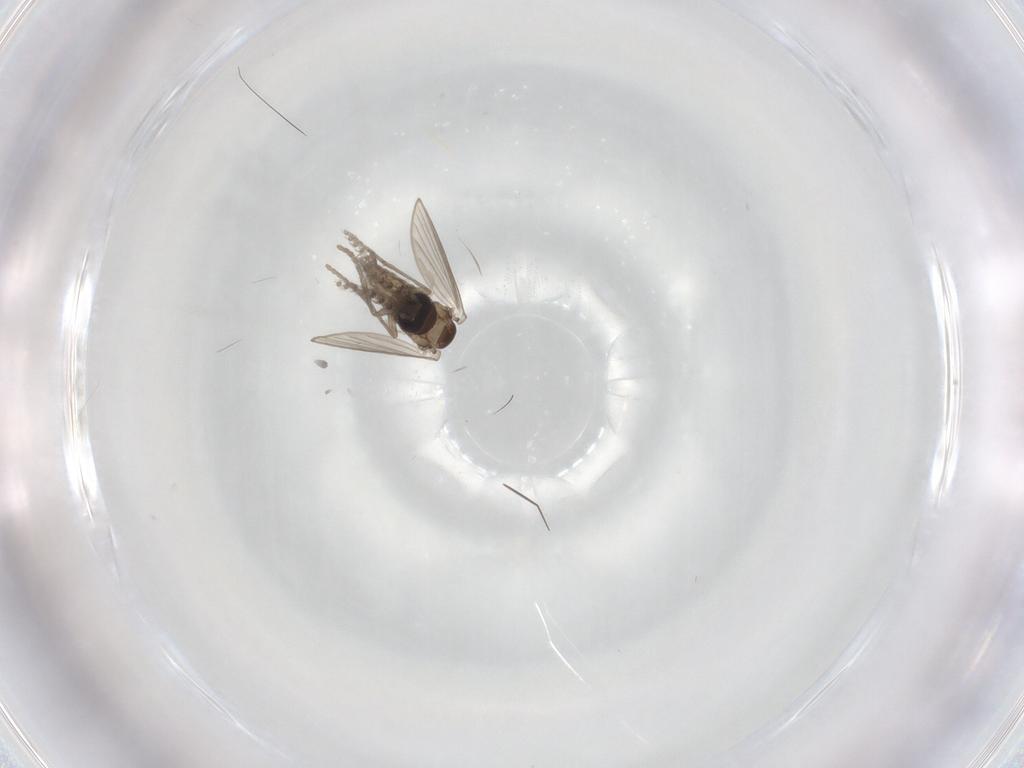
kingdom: Animalia
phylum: Arthropoda
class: Insecta
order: Diptera
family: Psychodidae
